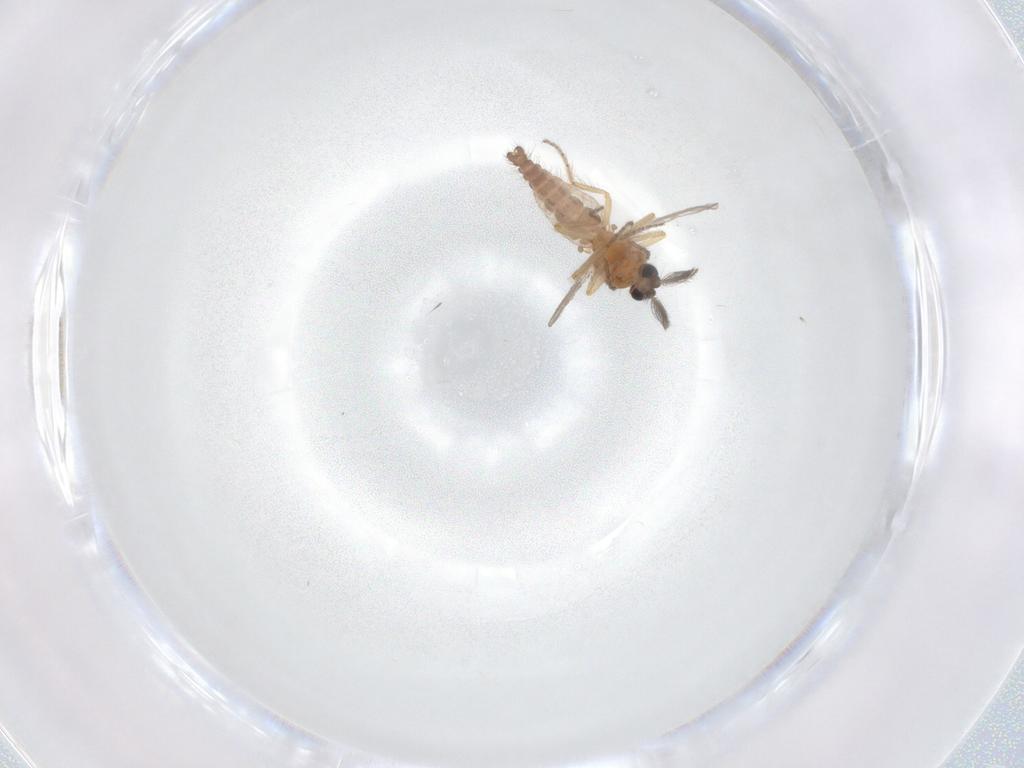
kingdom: Animalia
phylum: Arthropoda
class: Insecta
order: Diptera
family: Ceratopogonidae
